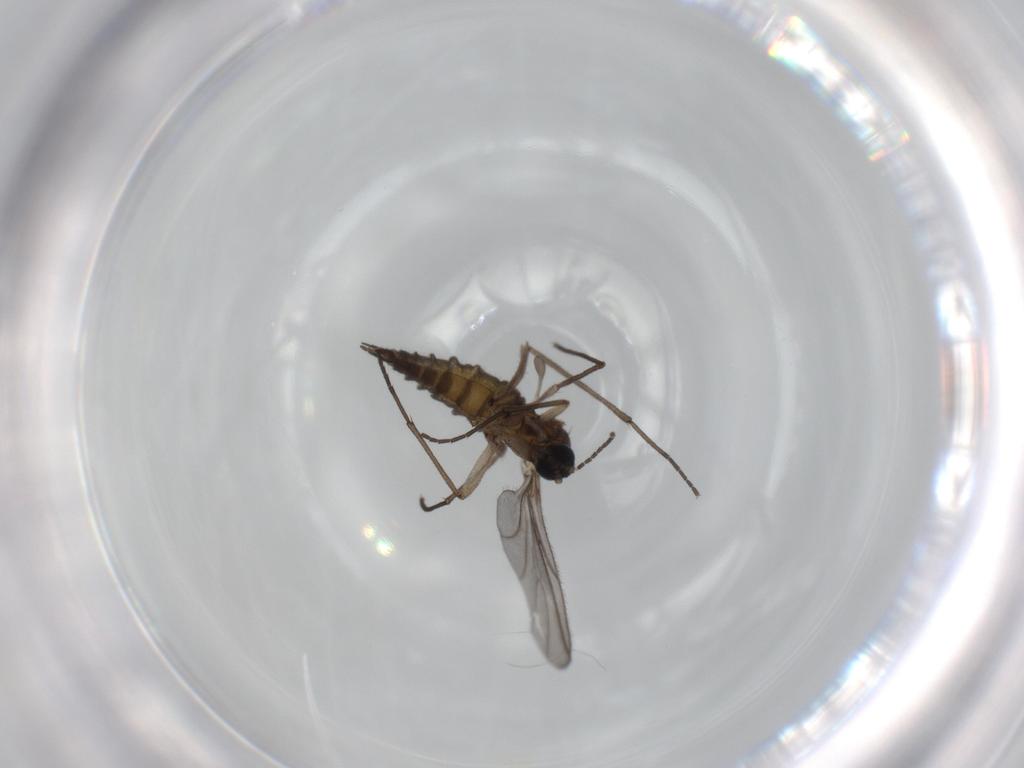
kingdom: Animalia
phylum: Arthropoda
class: Insecta
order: Diptera
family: Sciaridae
